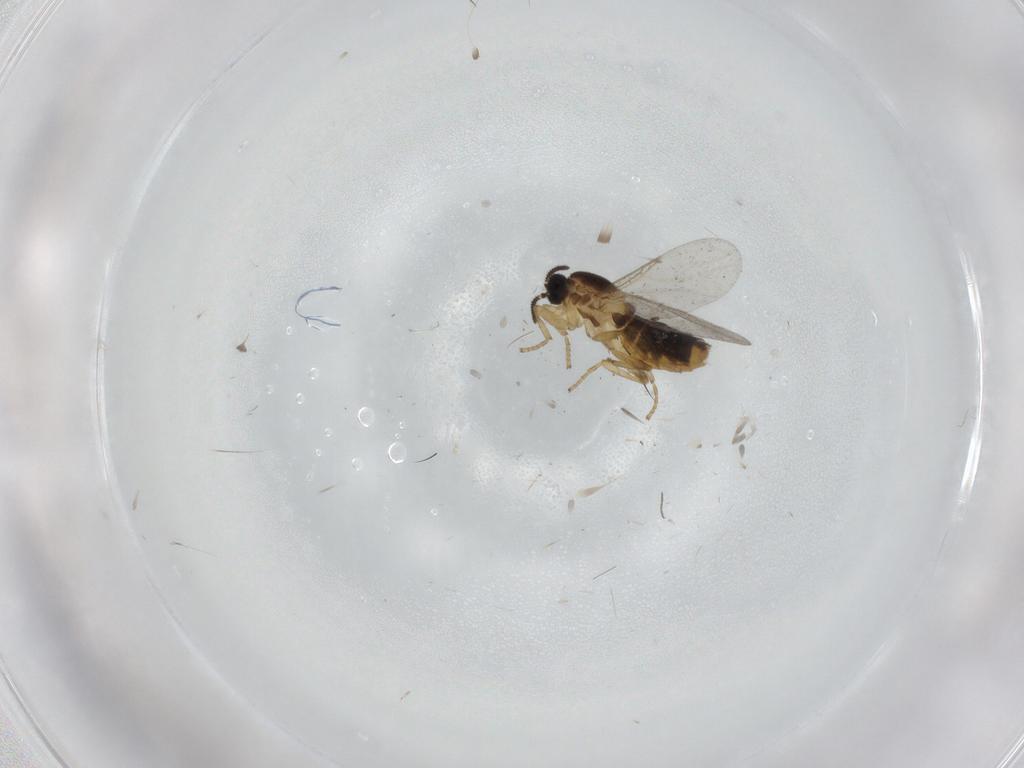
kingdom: Animalia
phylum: Arthropoda
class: Insecta
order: Diptera
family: Scatopsidae
